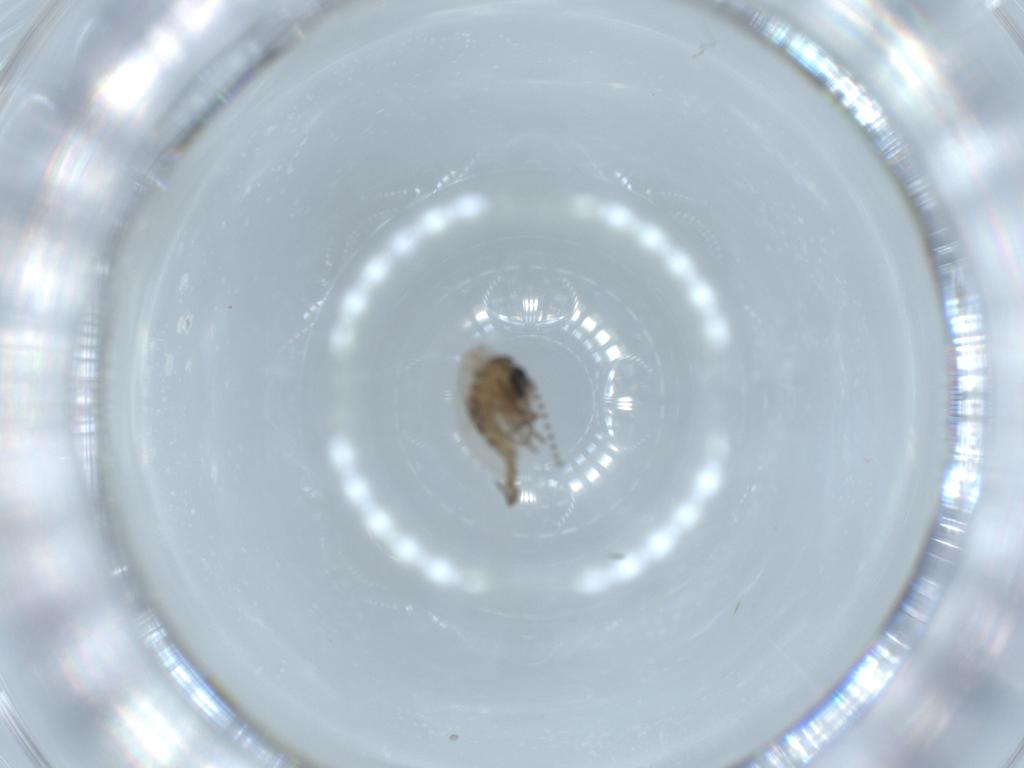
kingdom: Animalia
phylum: Arthropoda
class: Insecta
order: Diptera
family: Psychodidae
